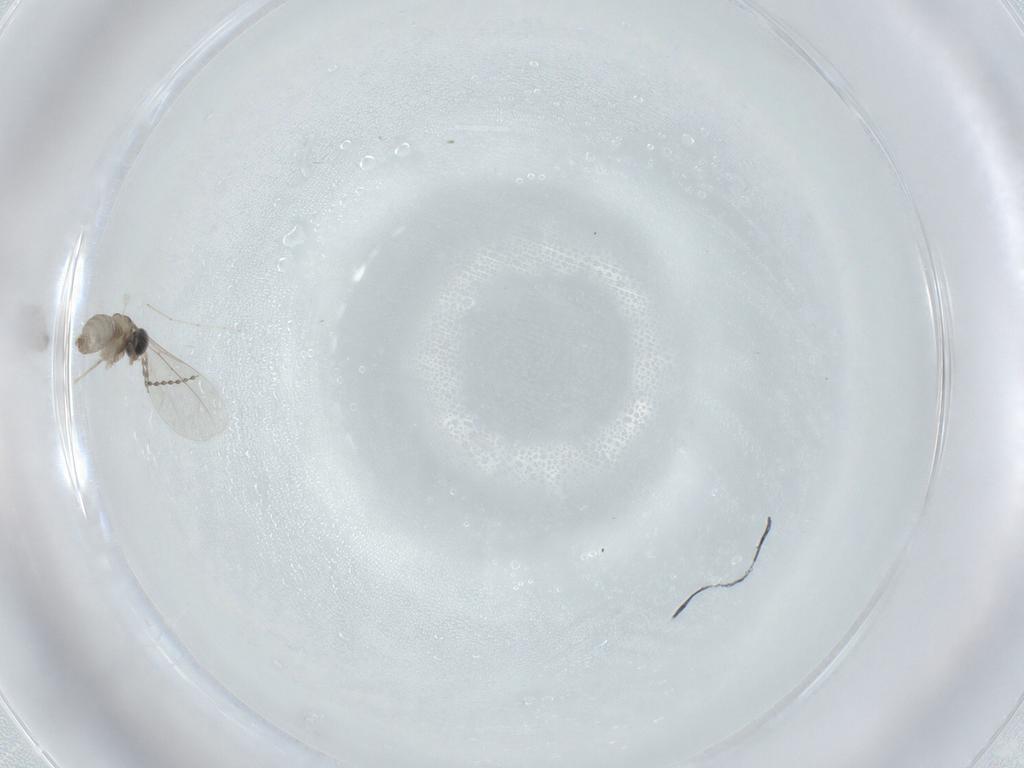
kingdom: Animalia
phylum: Arthropoda
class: Insecta
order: Diptera
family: Cecidomyiidae
